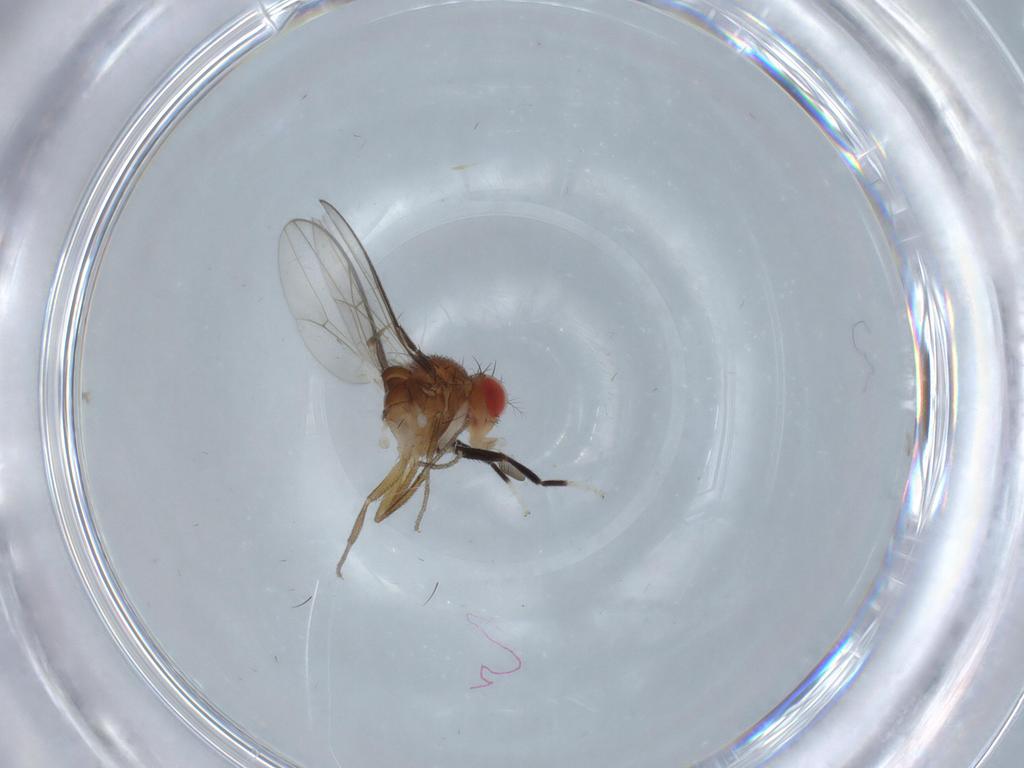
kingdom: Animalia
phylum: Arthropoda
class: Insecta
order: Diptera
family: Drosophilidae
